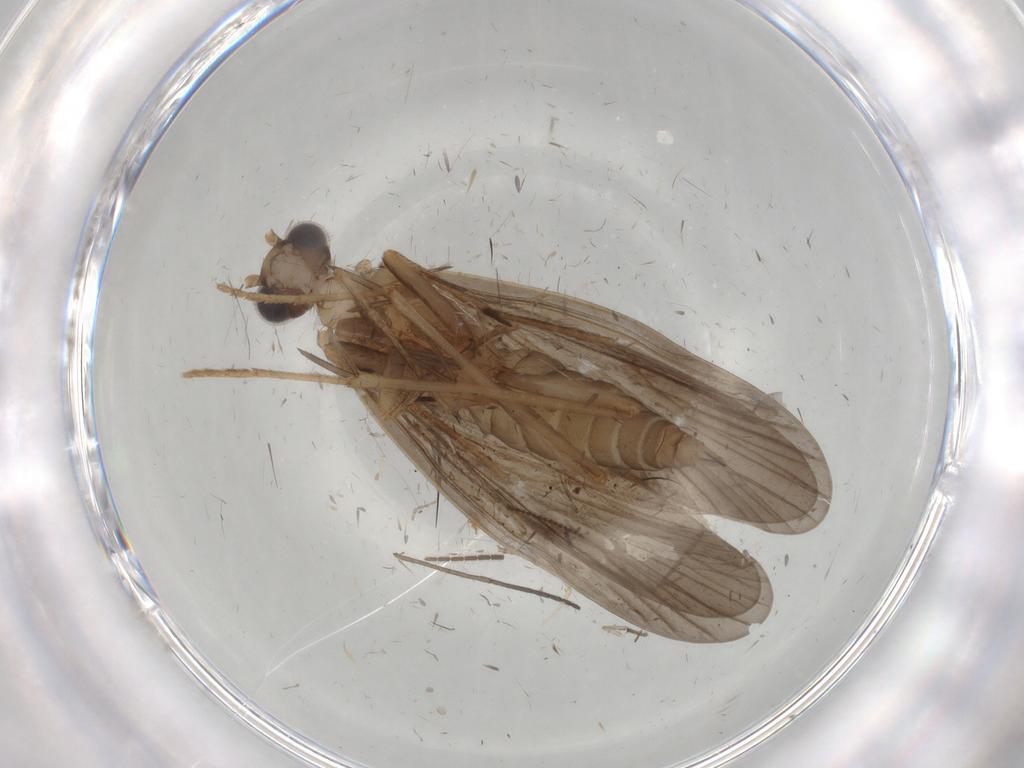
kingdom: Animalia
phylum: Arthropoda
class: Insecta
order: Trichoptera
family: Philopotamidae
